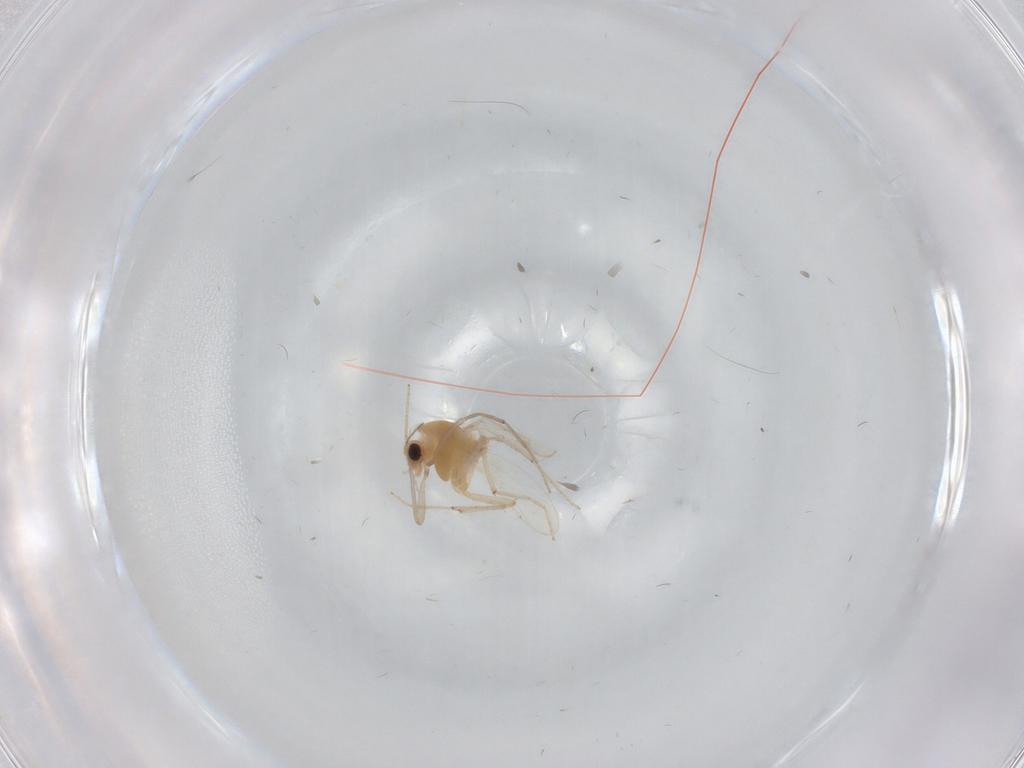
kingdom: Animalia
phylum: Arthropoda
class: Insecta
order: Diptera
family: Chironomidae
